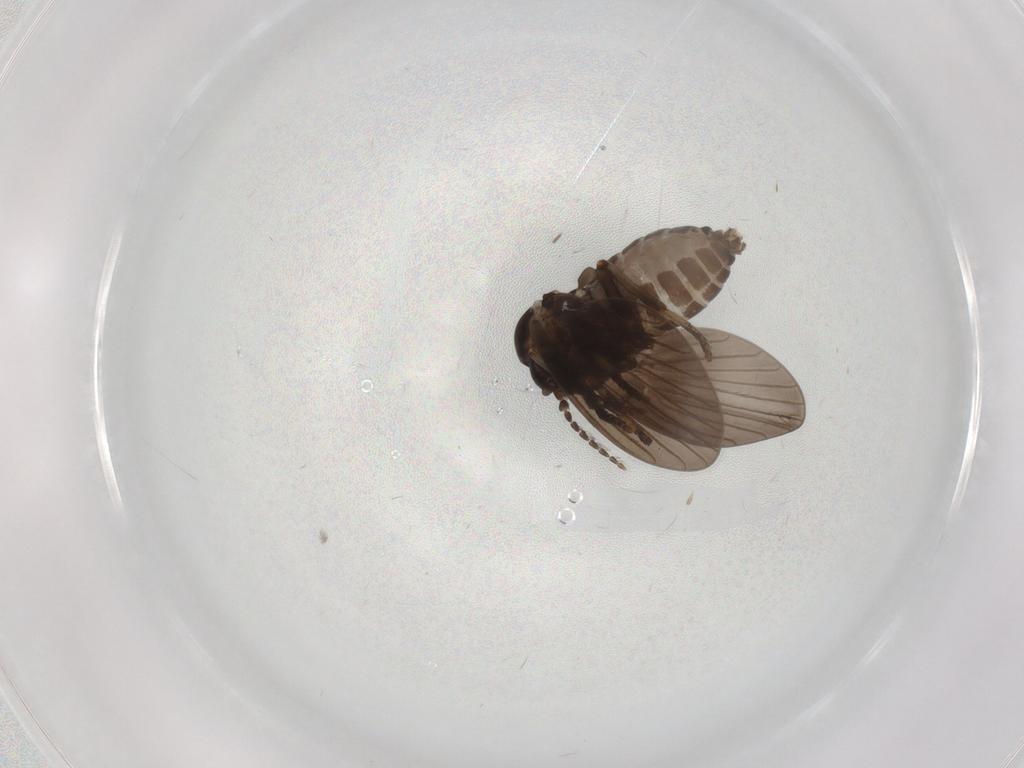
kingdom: Animalia
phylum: Arthropoda
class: Insecta
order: Diptera
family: Psychodidae
